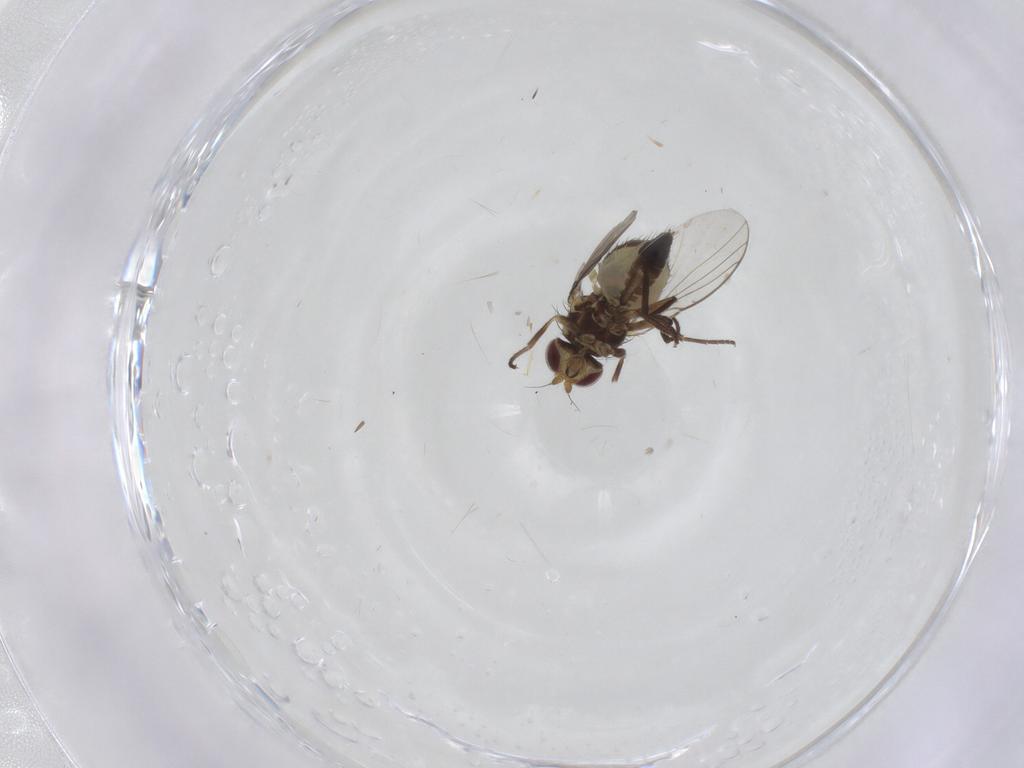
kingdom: Animalia
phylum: Arthropoda
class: Insecta
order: Diptera
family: Agromyzidae
